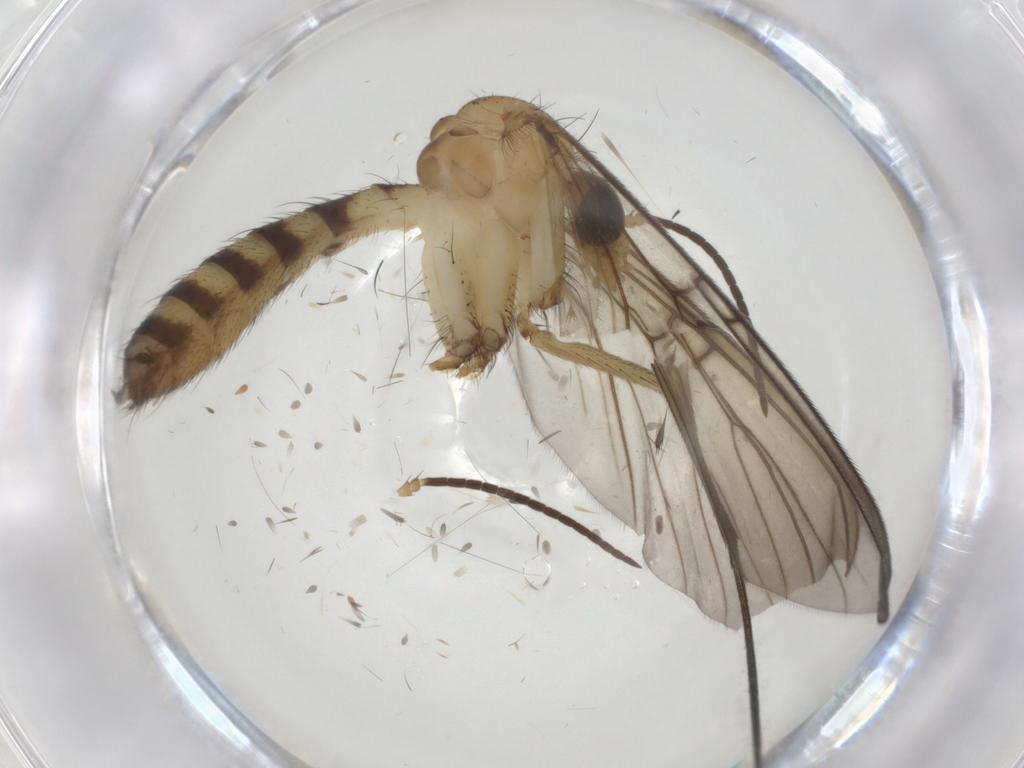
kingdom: Animalia
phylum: Arthropoda
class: Insecta
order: Diptera
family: Mycetophilidae
